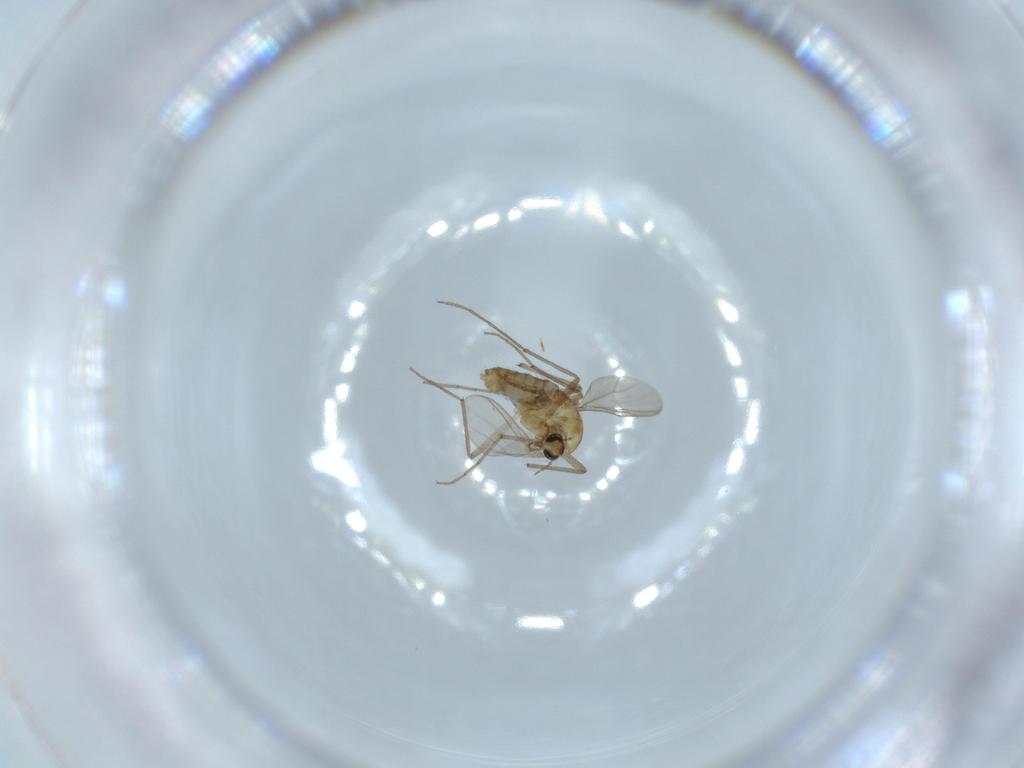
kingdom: Animalia
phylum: Arthropoda
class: Insecta
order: Diptera
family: Chironomidae
